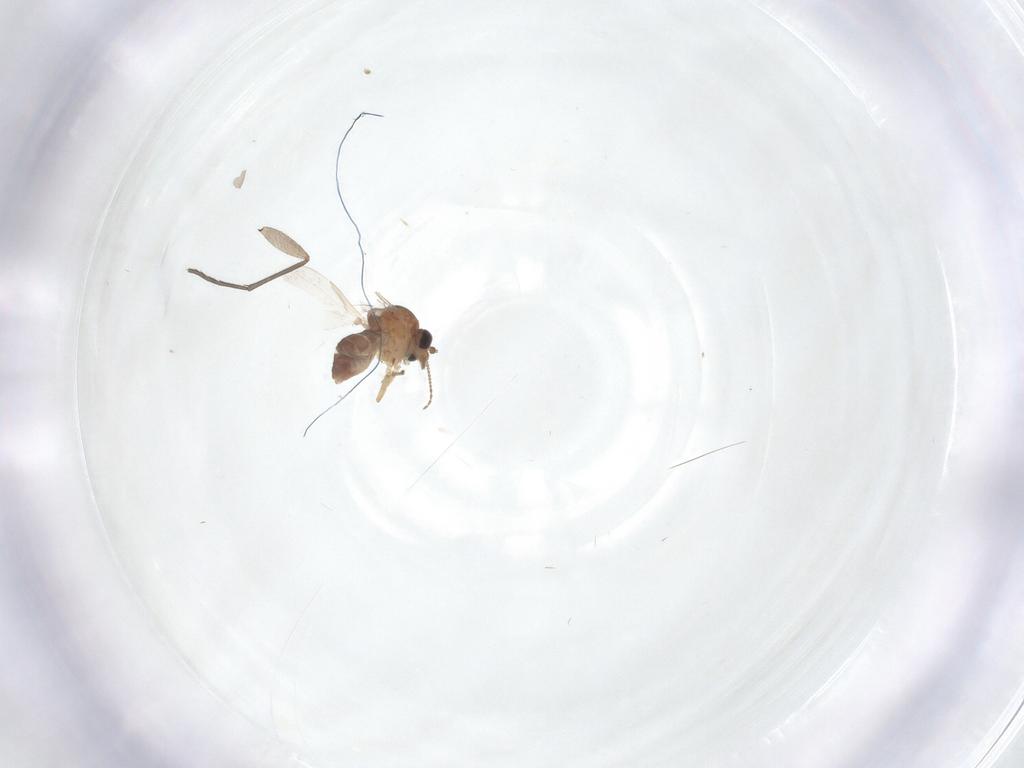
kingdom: Animalia
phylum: Arthropoda
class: Insecta
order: Diptera
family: Ceratopogonidae
